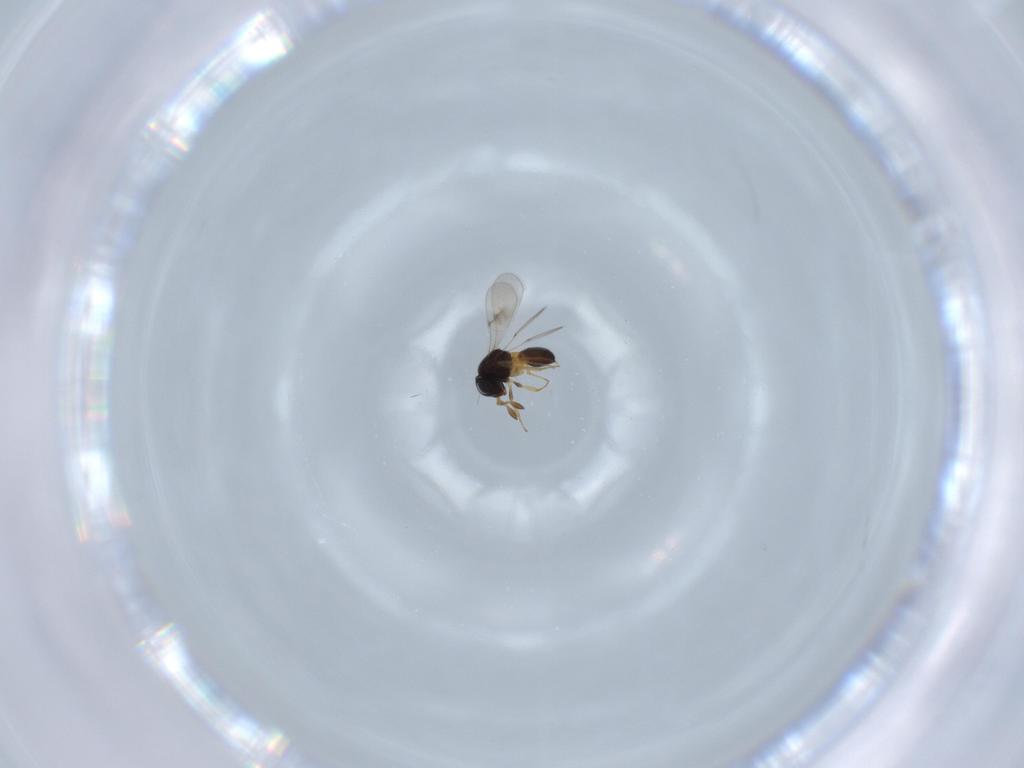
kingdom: Animalia
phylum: Arthropoda
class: Insecta
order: Hymenoptera
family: Scelionidae
